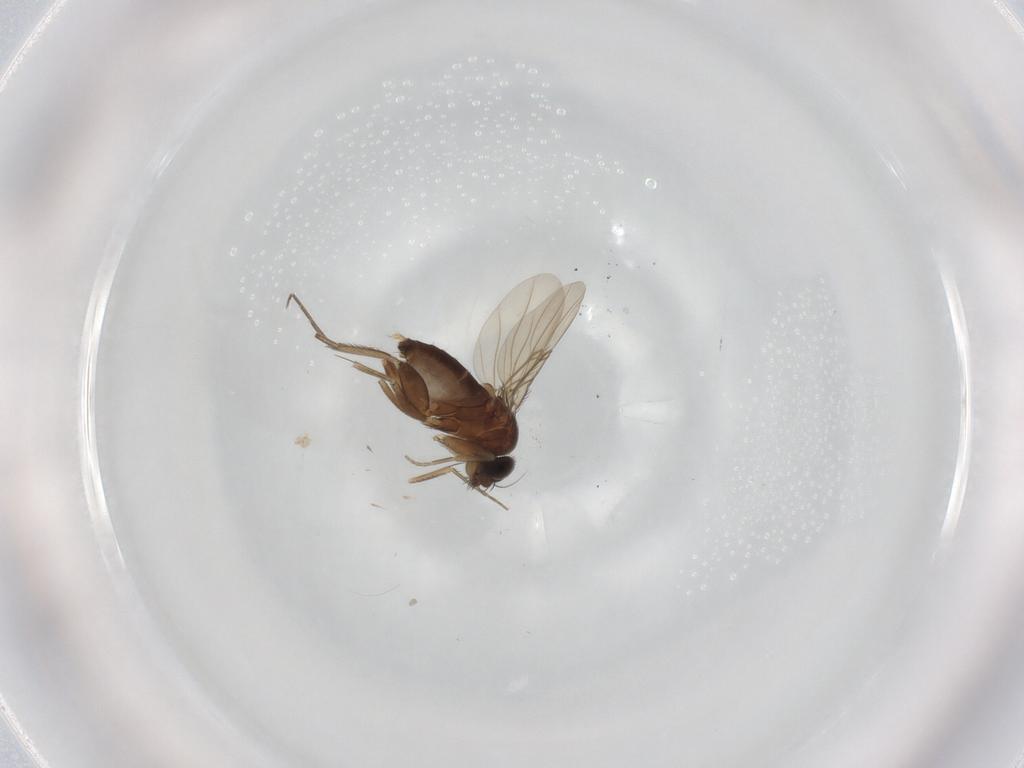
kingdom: Animalia
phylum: Arthropoda
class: Insecta
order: Diptera
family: Phoridae
